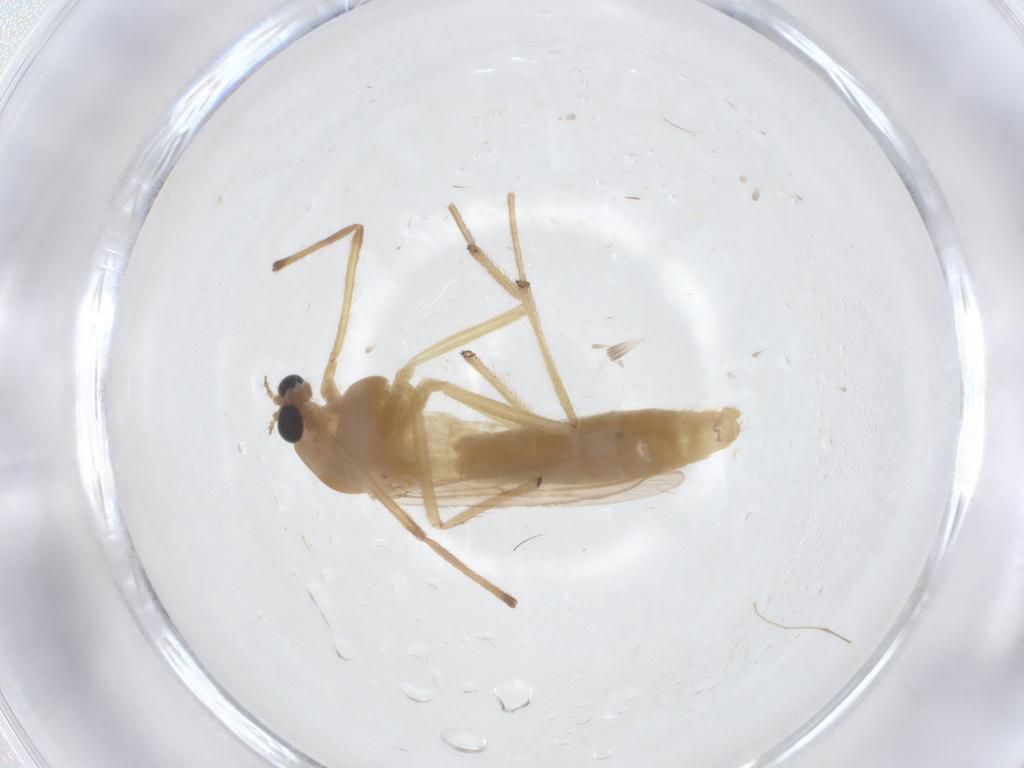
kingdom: Animalia
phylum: Arthropoda
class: Insecta
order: Diptera
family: Chironomidae
